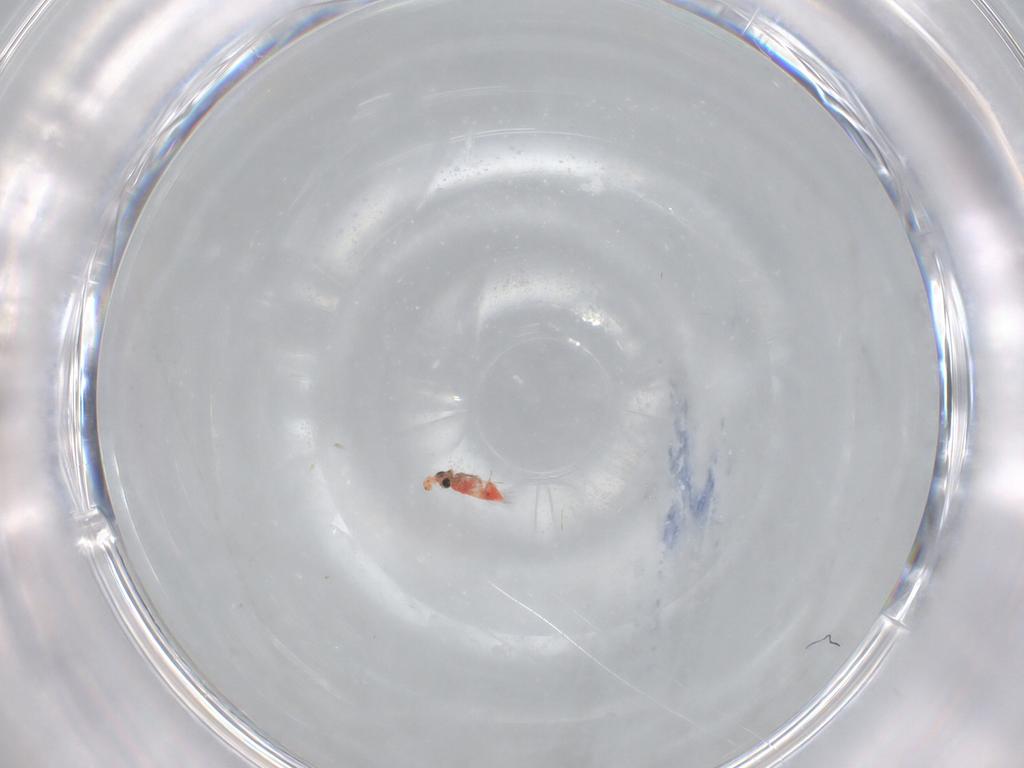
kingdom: Animalia
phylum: Arthropoda
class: Insecta
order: Hymenoptera
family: Trichogrammatidae
